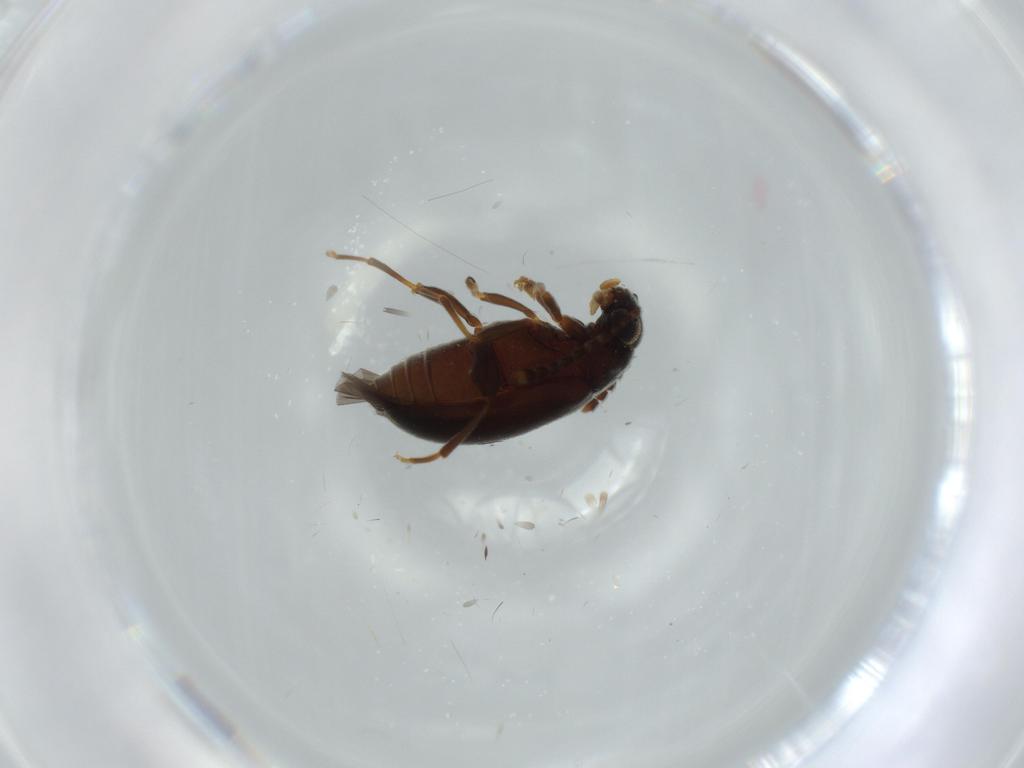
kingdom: Animalia
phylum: Arthropoda
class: Insecta
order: Coleoptera
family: Aderidae
